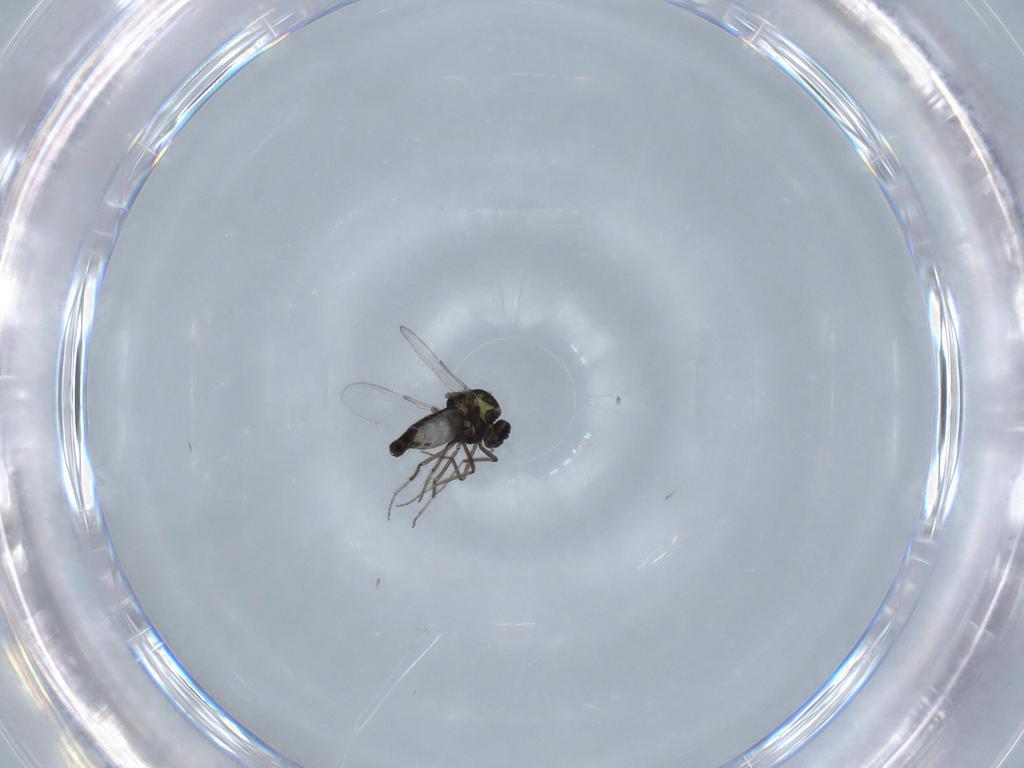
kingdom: Animalia
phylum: Arthropoda
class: Insecta
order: Diptera
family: Ceratopogonidae
